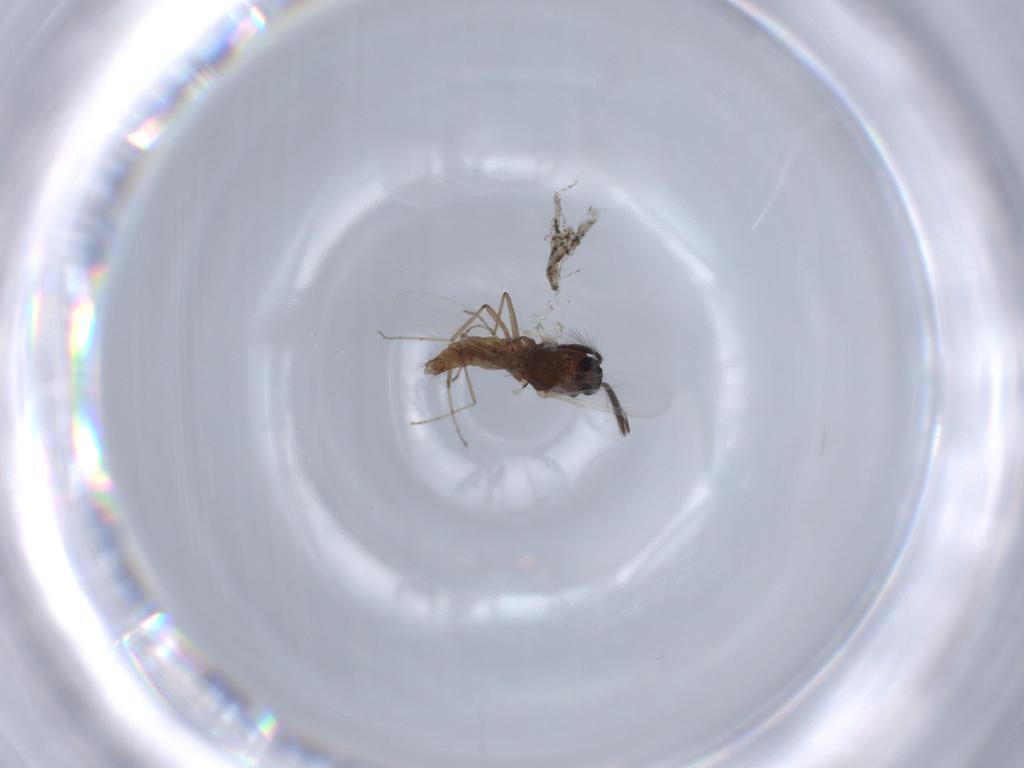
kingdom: Animalia
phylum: Arthropoda
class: Insecta
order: Diptera
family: Ceratopogonidae
